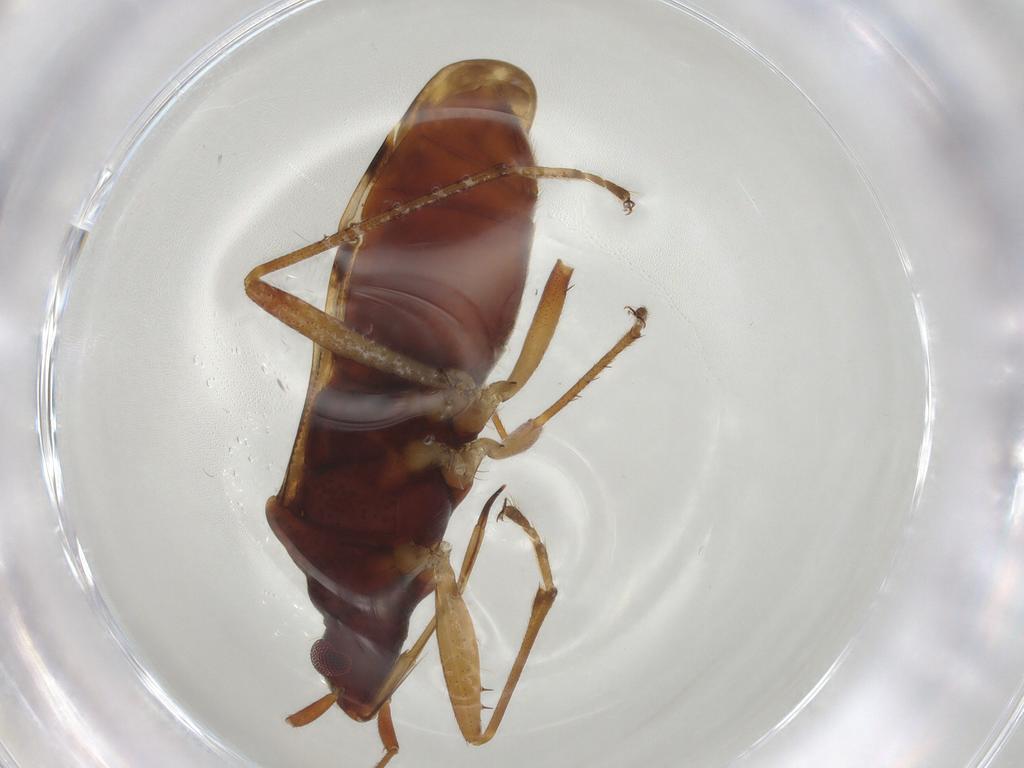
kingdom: Animalia
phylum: Arthropoda
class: Insecta
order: Hemiptera
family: Rhyparochromidae
